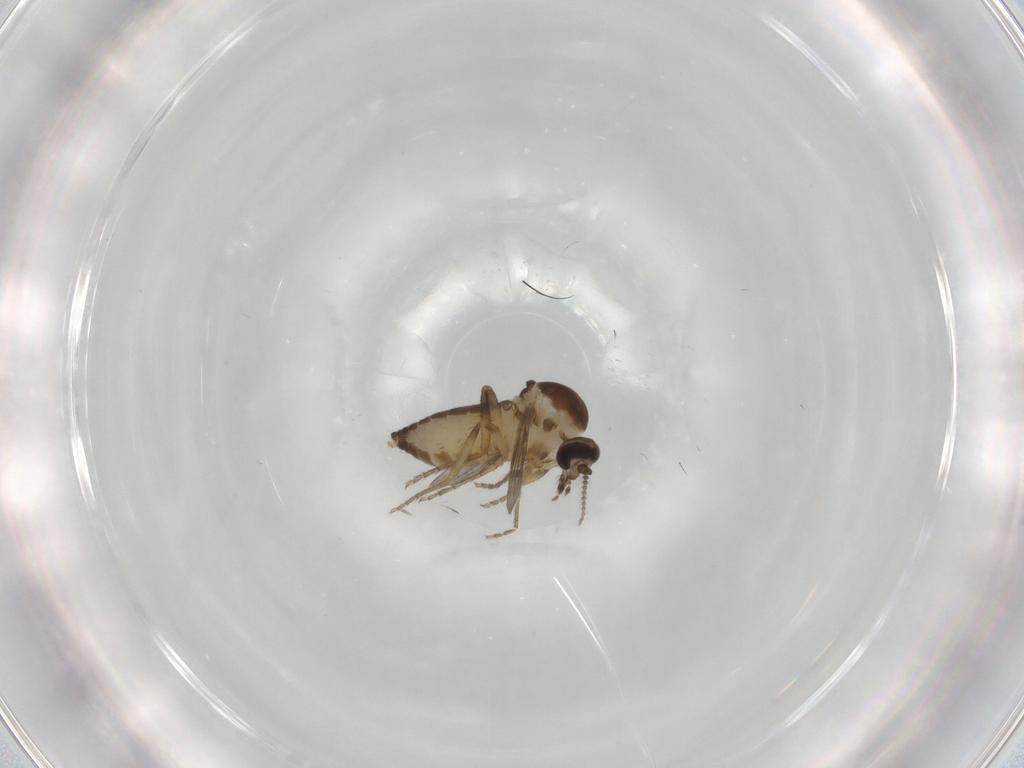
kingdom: Animalia
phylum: Arthropoda
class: Insecta
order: Diptera
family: Ceratopogonidae
